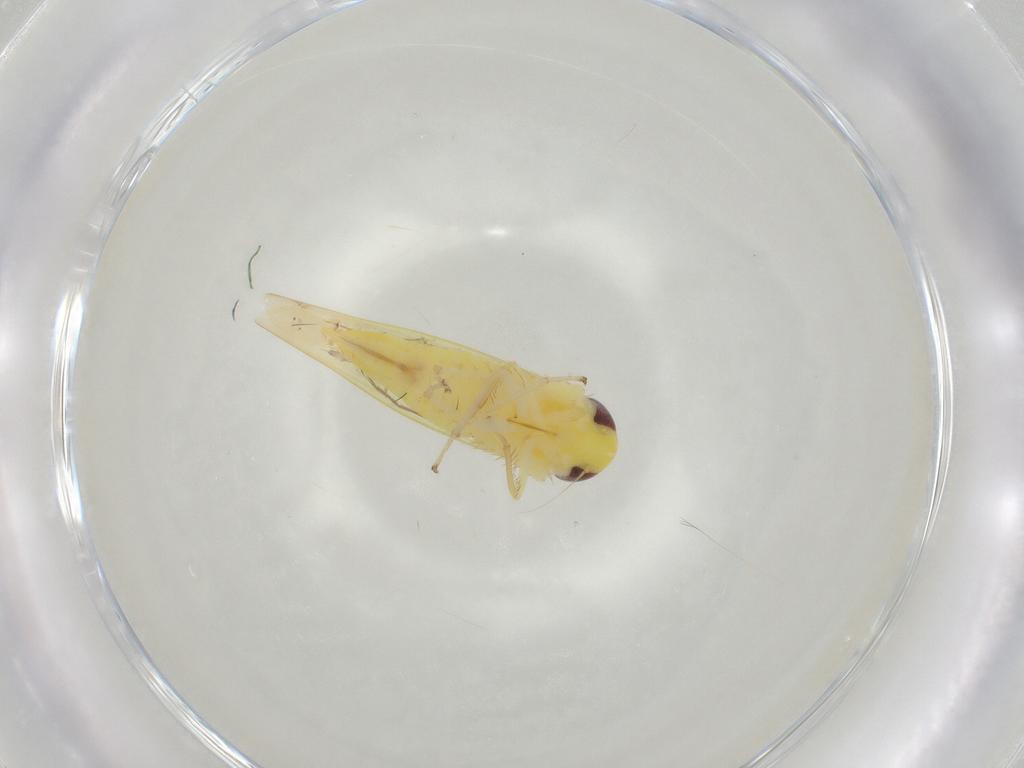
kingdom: Animalia
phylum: Arthropoda
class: Insecta
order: Hemiptera
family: Cicadellidae
